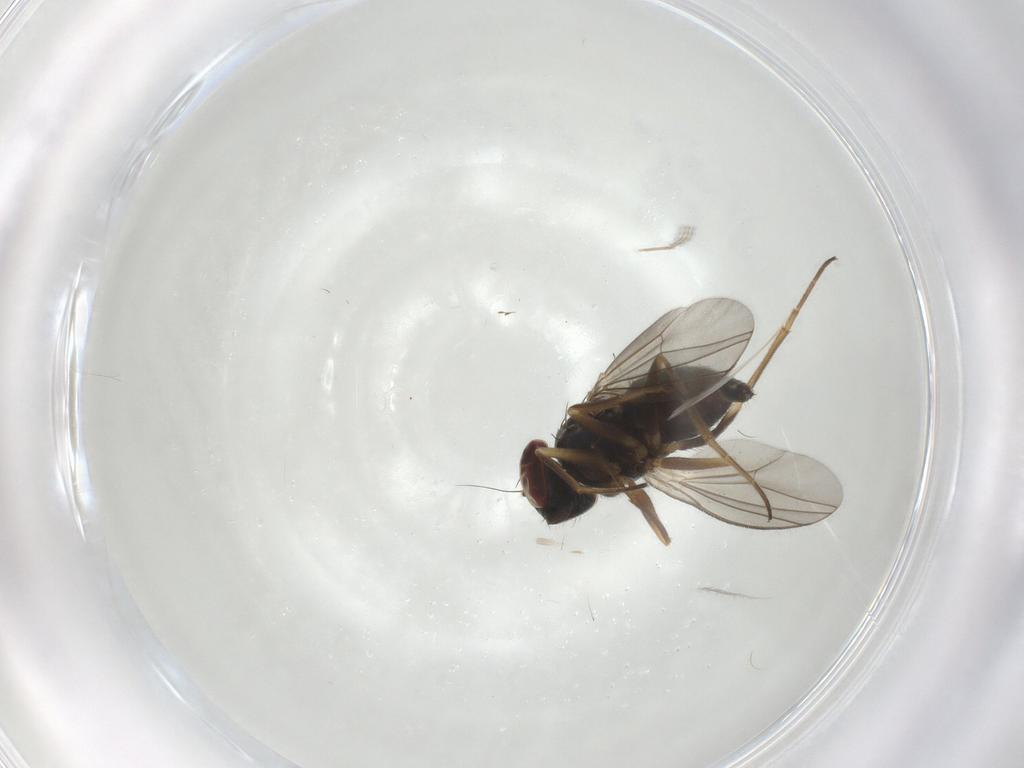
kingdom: Animalia
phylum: Arthropoda
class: Insecta
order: Diptera
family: Dolichopodidae
